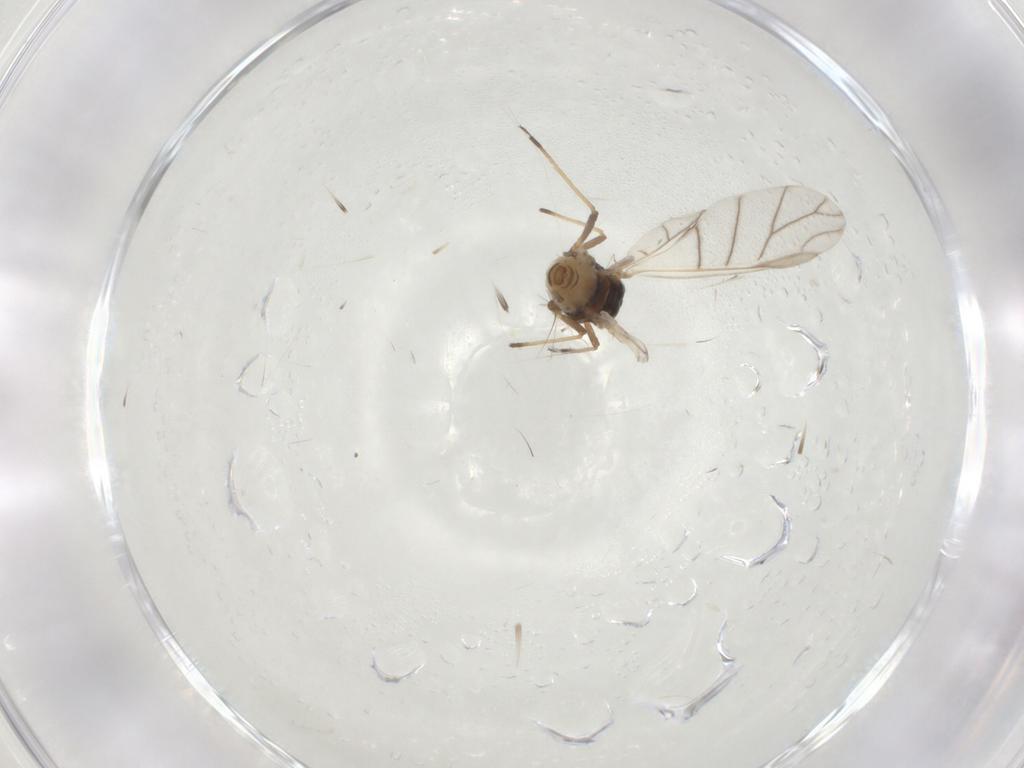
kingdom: Animalia
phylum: Arthropoda
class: Insecta
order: Hemiptera
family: Aphididae
